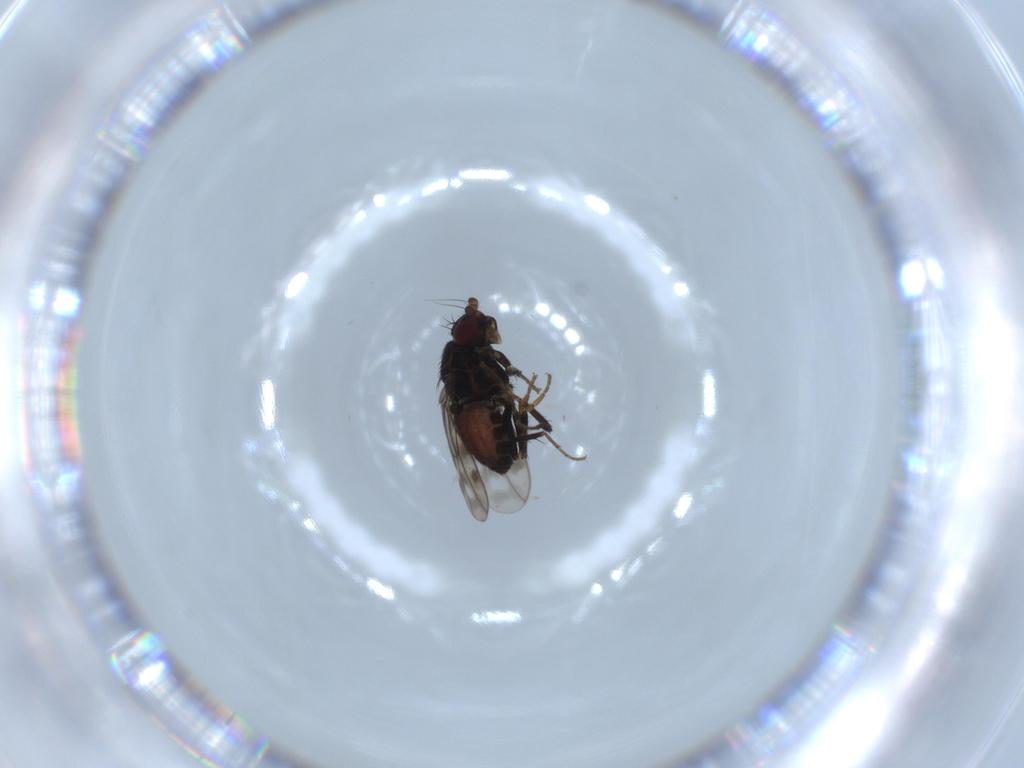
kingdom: Animalia
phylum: Arthropoda
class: Insecta
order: Diptera
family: Sphaeroceridae
